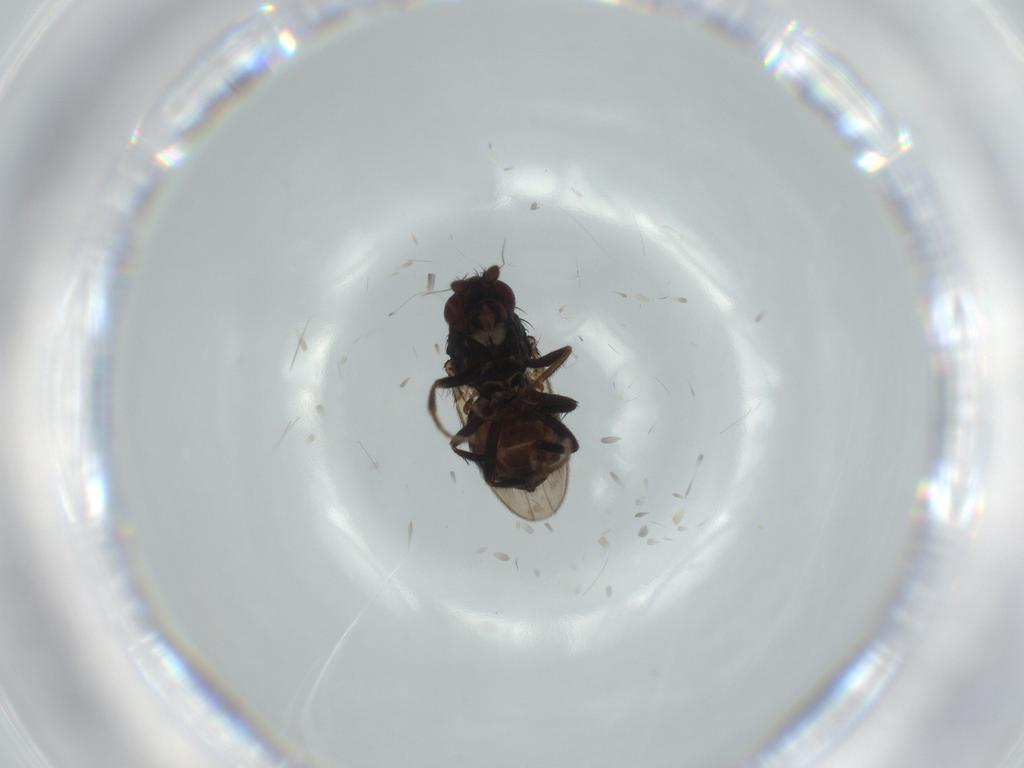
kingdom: Animalia
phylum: Arthropoda
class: Insecta
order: Diptera
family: Sphaeroceridae
